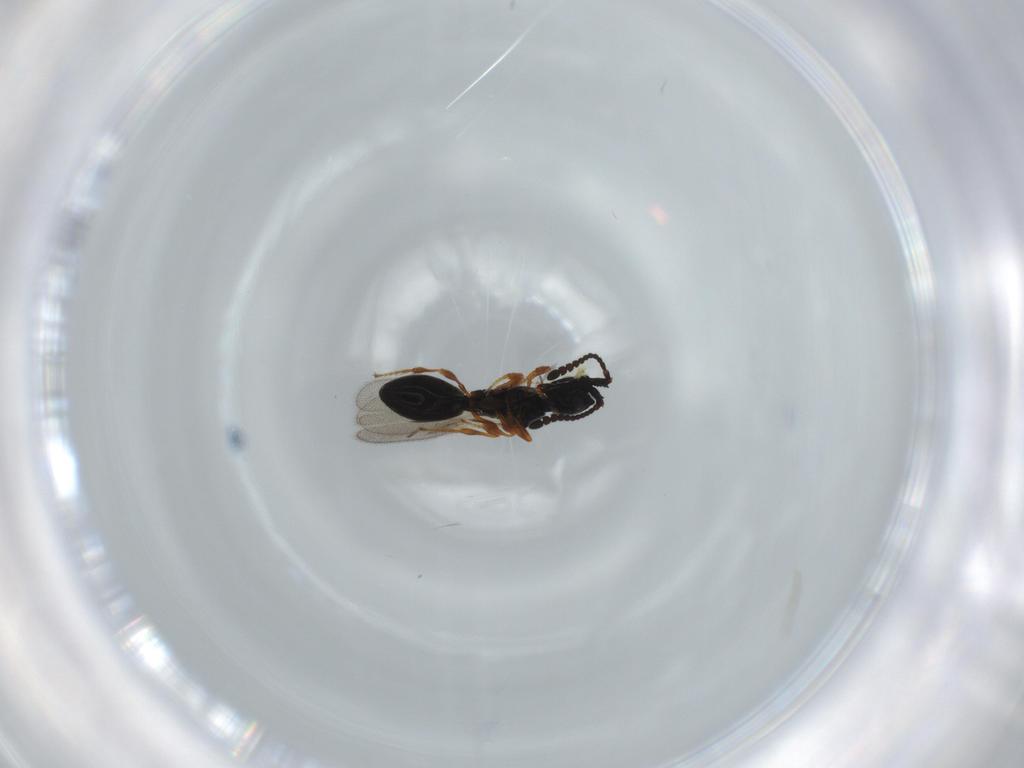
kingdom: Animalia
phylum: Arthropoda
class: Insecta
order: Hymenoptera
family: Diapriidae
